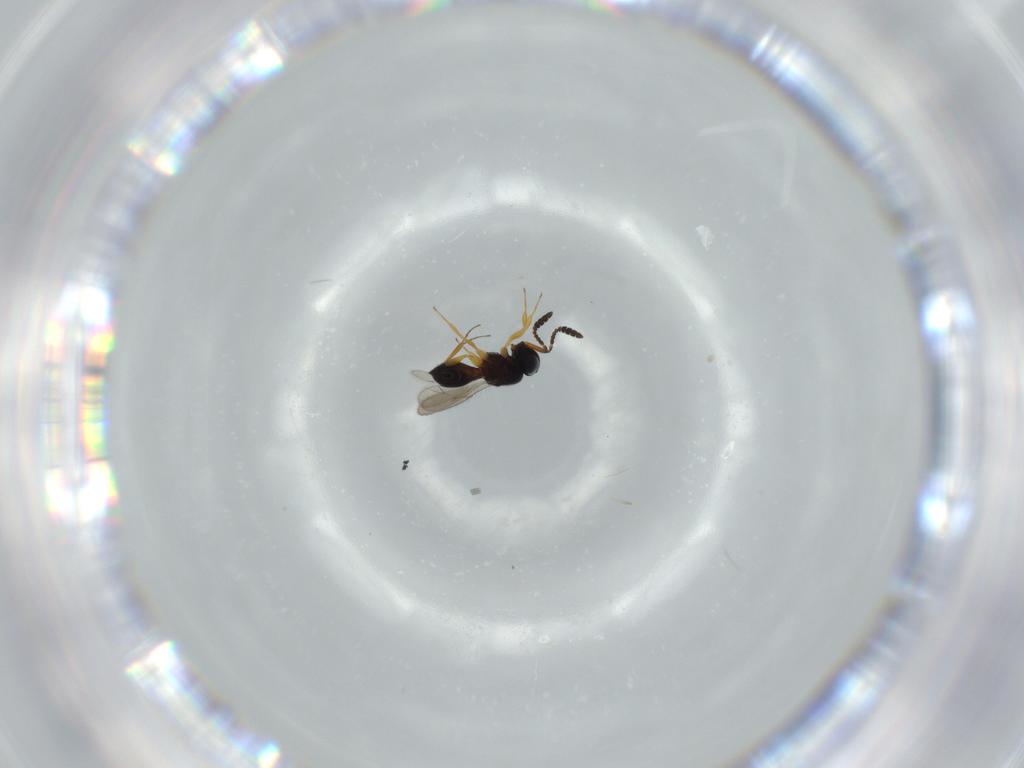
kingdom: Animalia
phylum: Arthropoda
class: Insecta
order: Hymenoptera
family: Scelionidae
